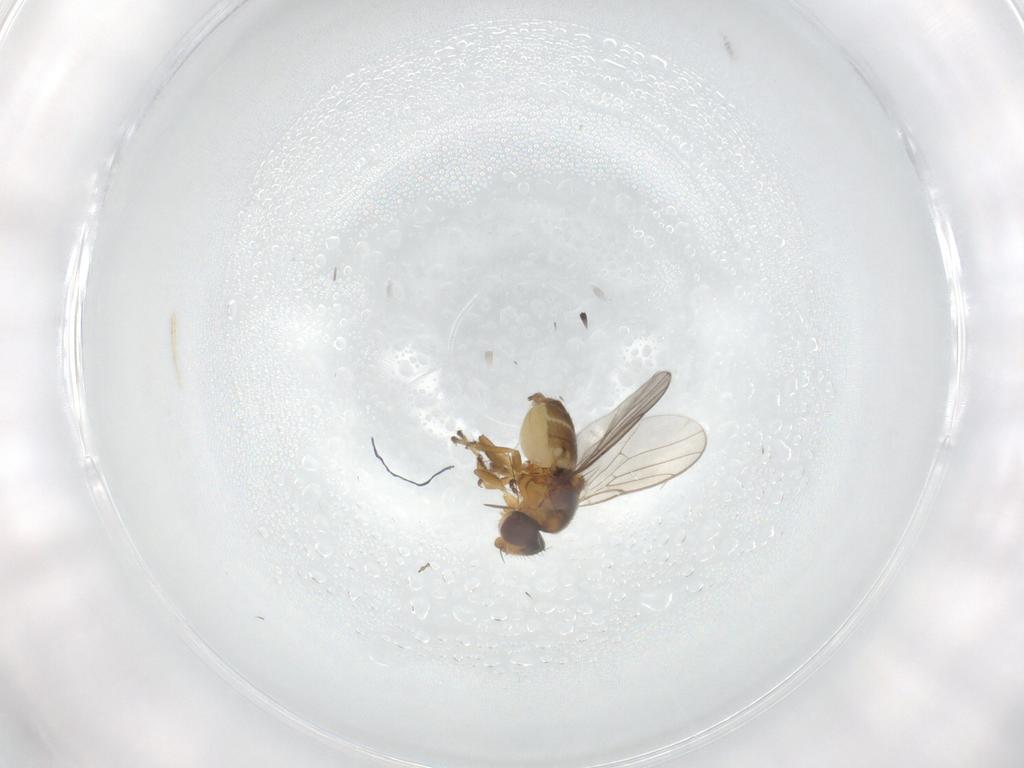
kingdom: Animalia
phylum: Arthropoda
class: Insecta
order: Diptera
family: Chloropidae
